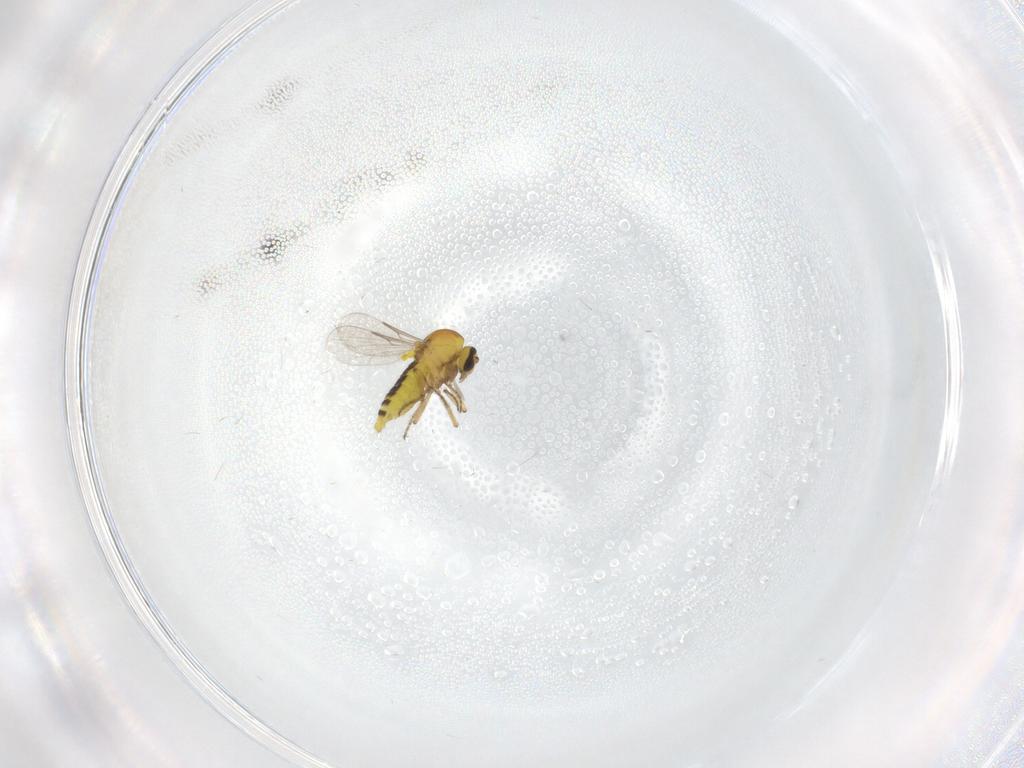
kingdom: Animalia
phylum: Arthropoda
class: Insecta
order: Diptera
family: Ceratopogonidae
